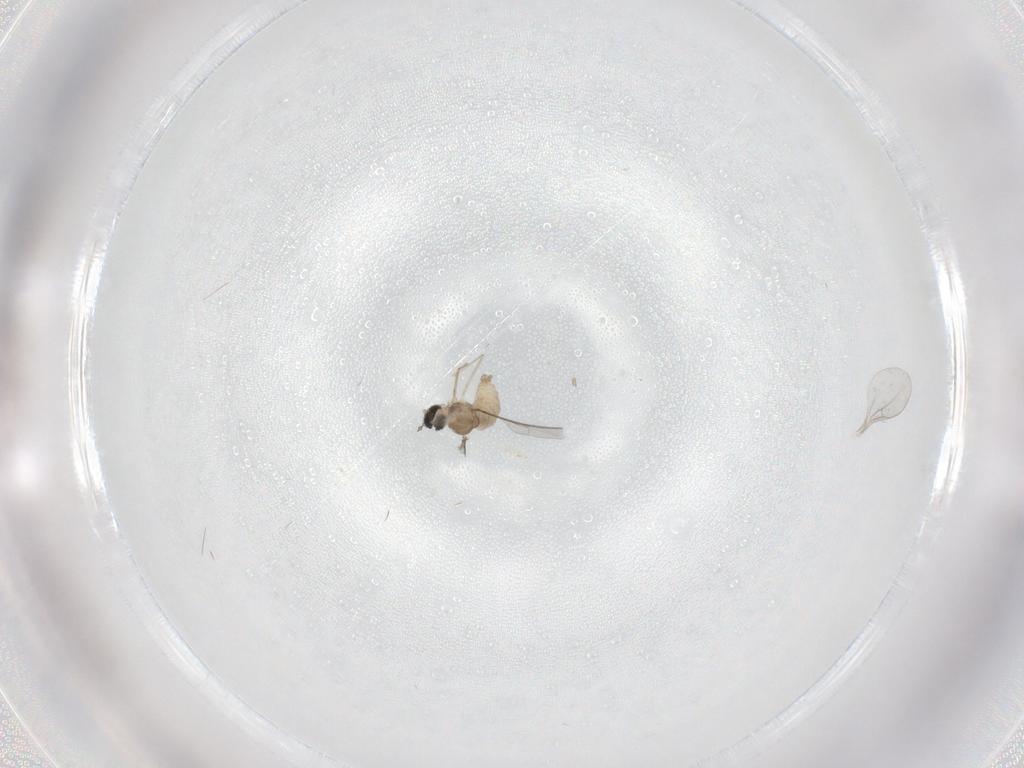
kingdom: Animalia
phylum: Arthropoda
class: Insecta
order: Diptera
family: Cecidomyiidae
